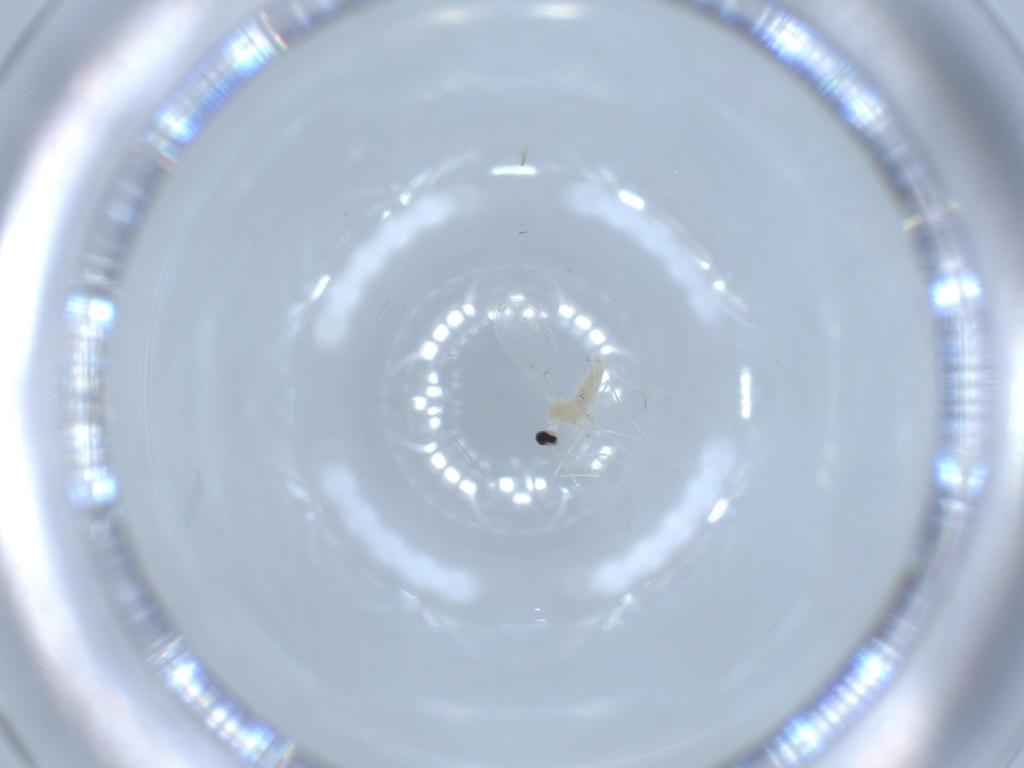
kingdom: Animalia
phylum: Arthropoda
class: Insecta
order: Diptera
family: Cecidomyiidae
